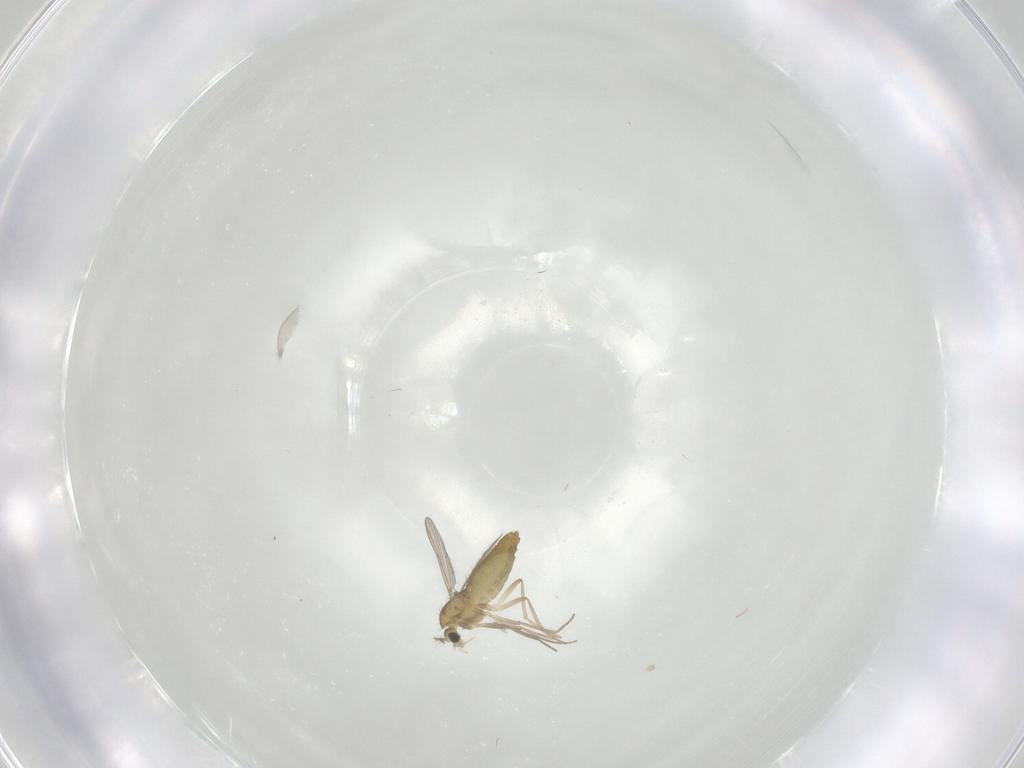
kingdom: Animalia
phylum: Arthropoda
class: Insecta
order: Diptera
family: Chironomidae
